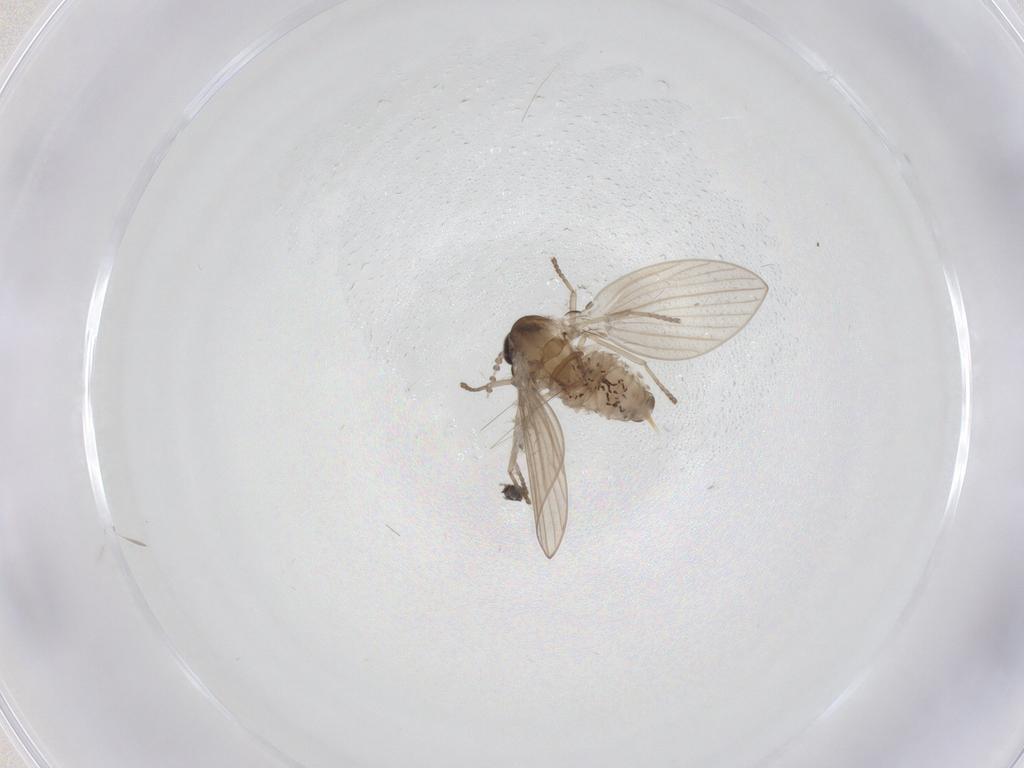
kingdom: Animalia
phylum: Arthropoda
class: Insecta
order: Diptera
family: Psychodidae
